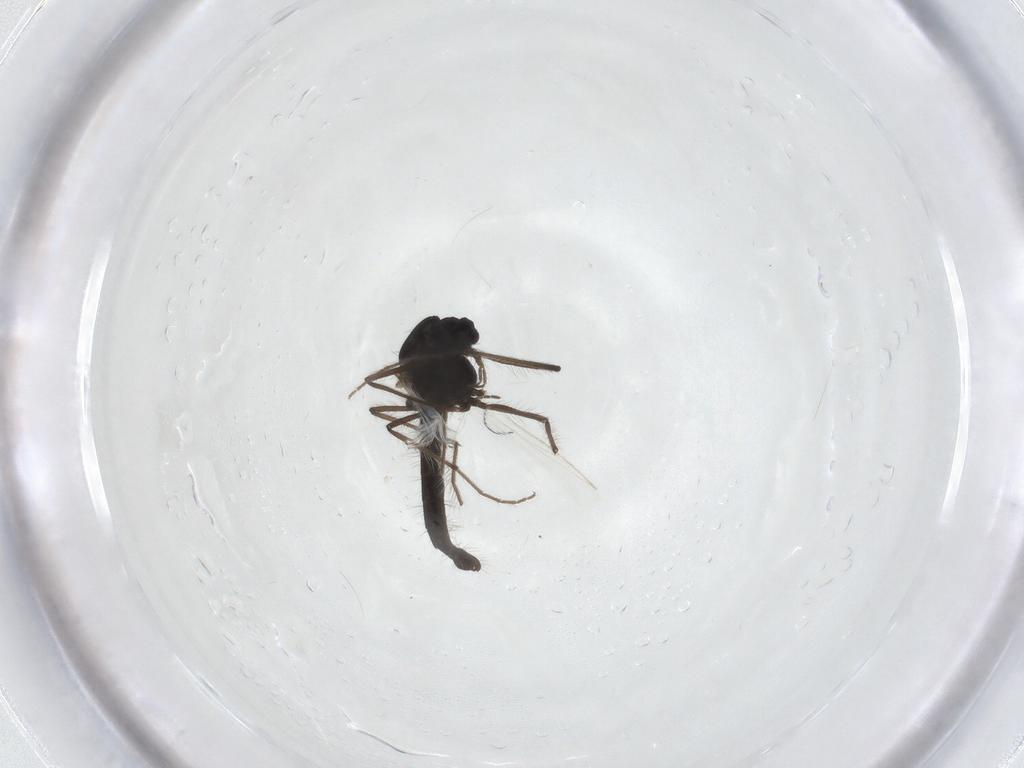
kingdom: Animalia
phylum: Arthropoda
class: Insecta
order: Diptera
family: Chironomidae
